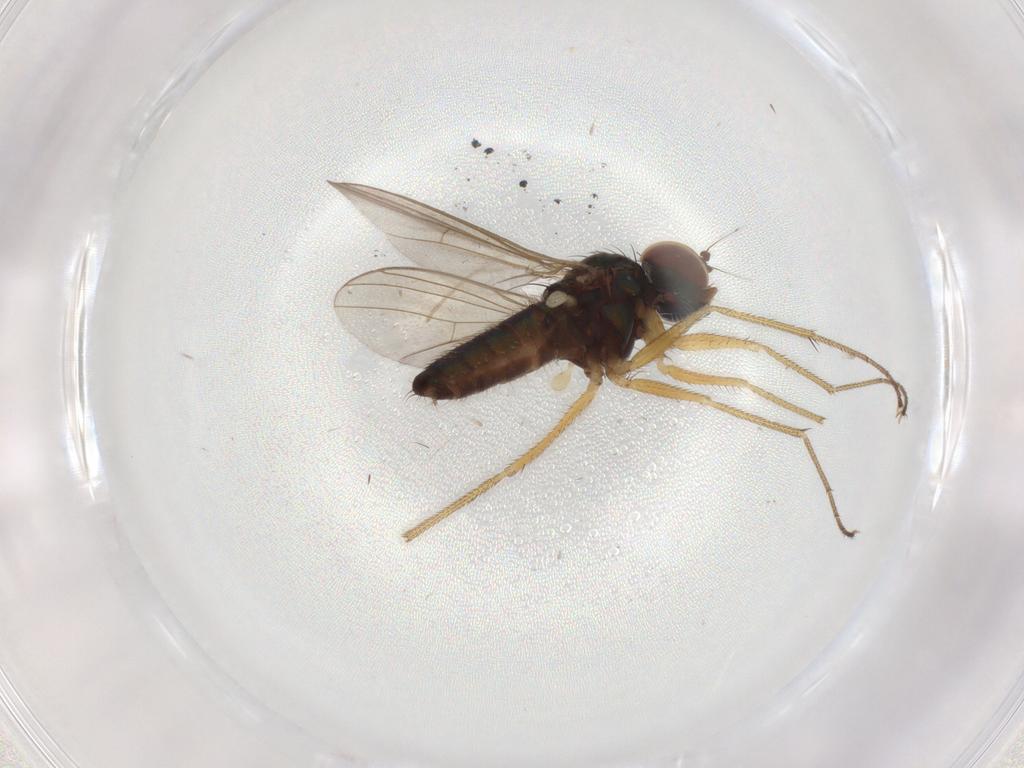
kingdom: Animalia
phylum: Arthropoda
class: Insecta
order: Diptera
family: Dolichopodidae
